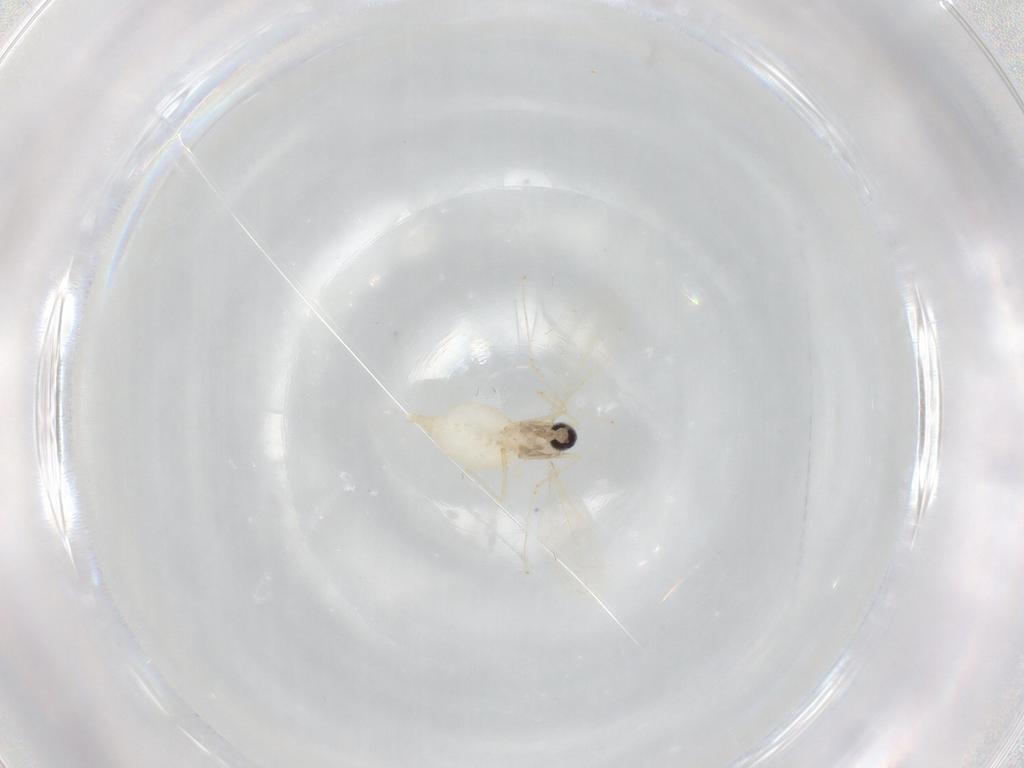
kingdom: Animalia
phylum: Arthropoda
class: Insecta
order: Diptera
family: Cecidomyiidae
